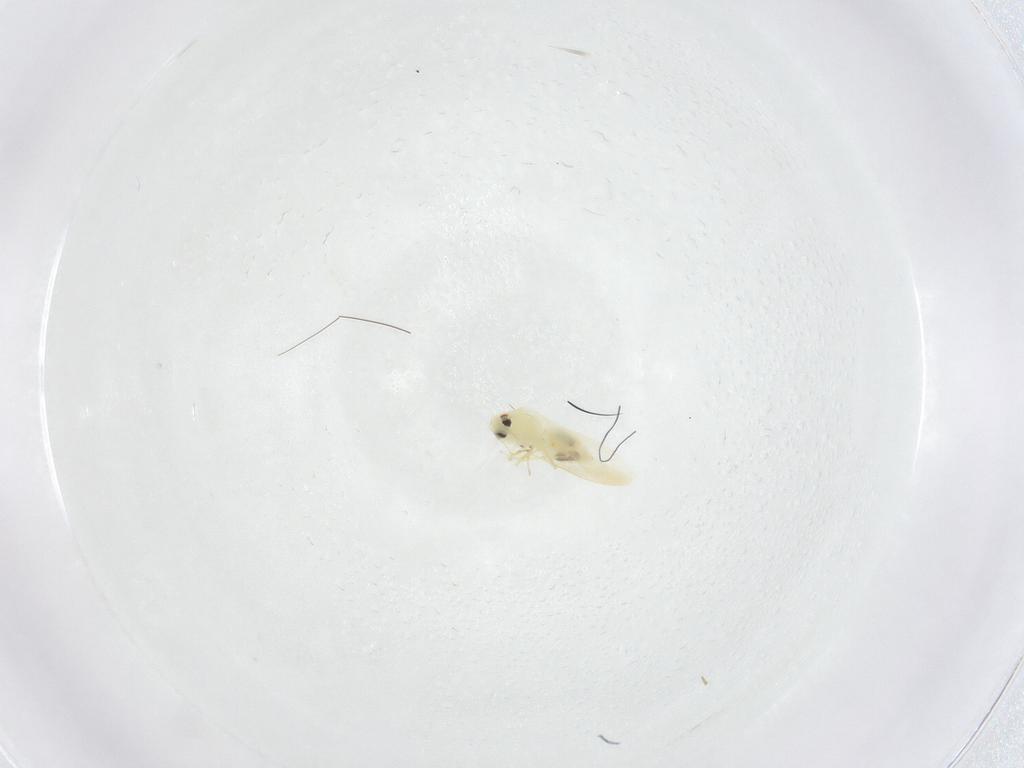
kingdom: Animalia
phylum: Arthropoda
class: Insecta
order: Hemiptera
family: Aleyrodidae
